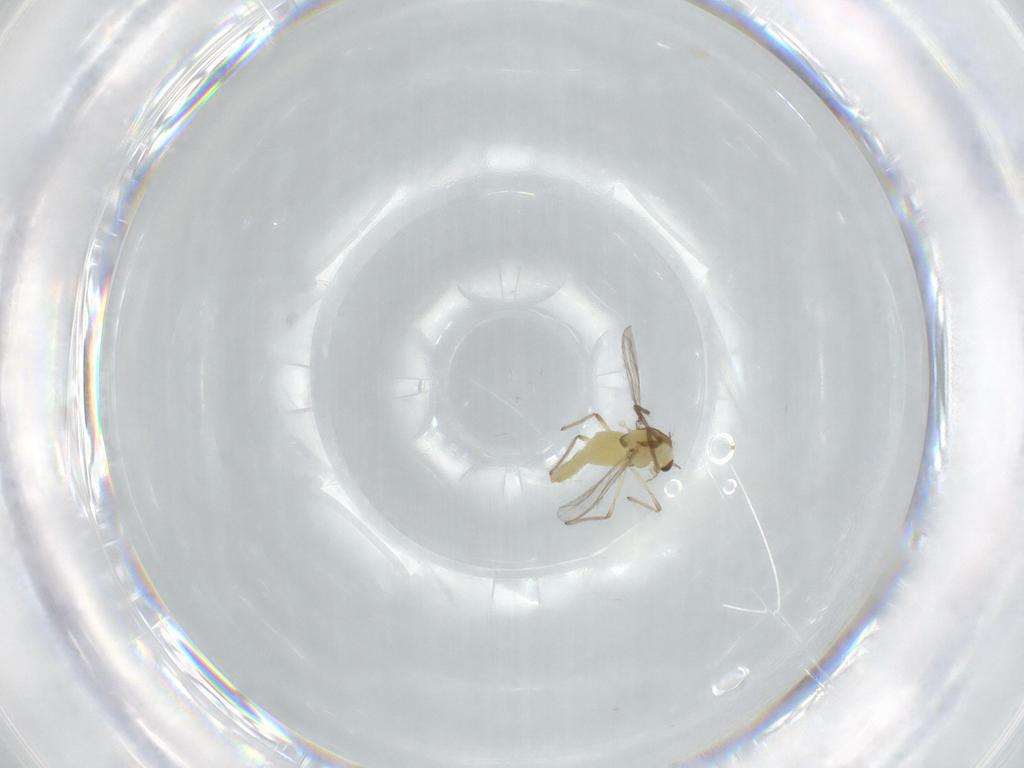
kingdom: Animalia
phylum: Arthropoda
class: Insecta
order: Diptera
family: Chironomidae
